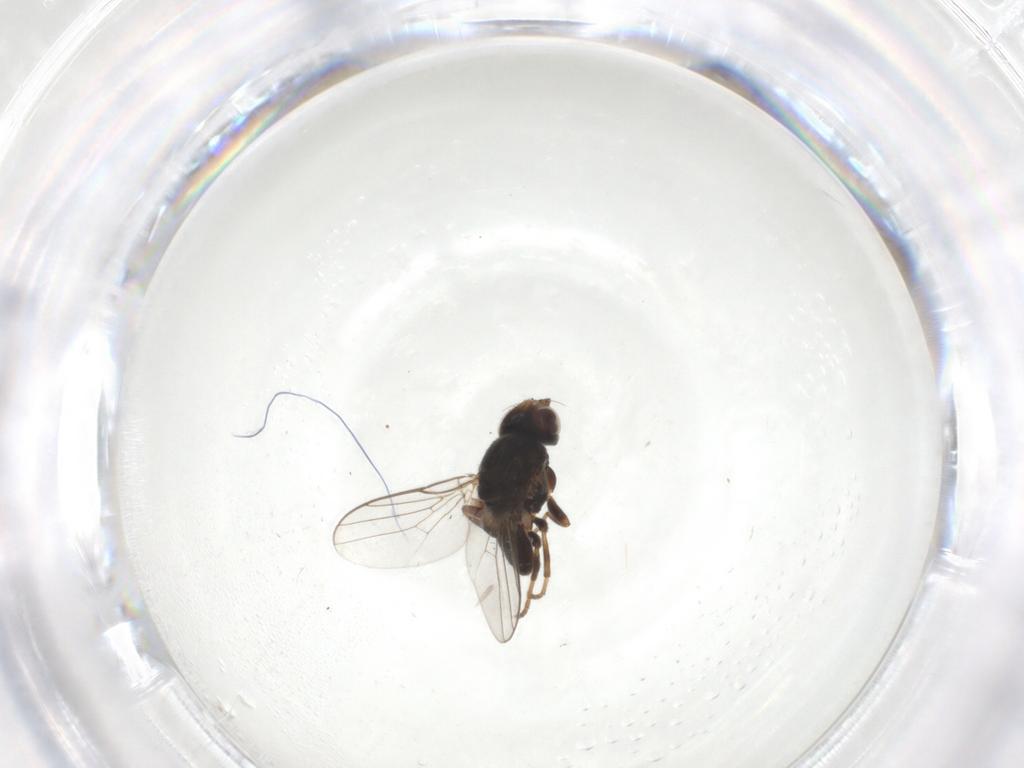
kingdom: Animalia
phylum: Arthropoda
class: Insecta
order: Diptera
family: Chloropidae
